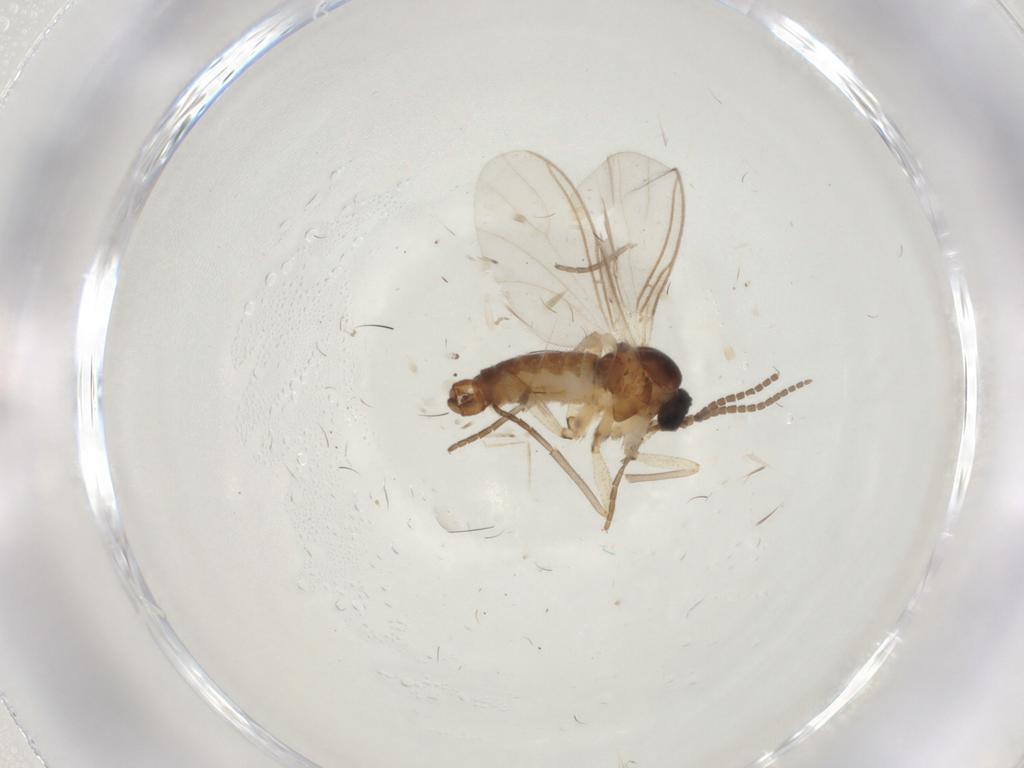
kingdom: Animalia
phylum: Arthropoda
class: Insecta
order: Diptera
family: Sciaridae
